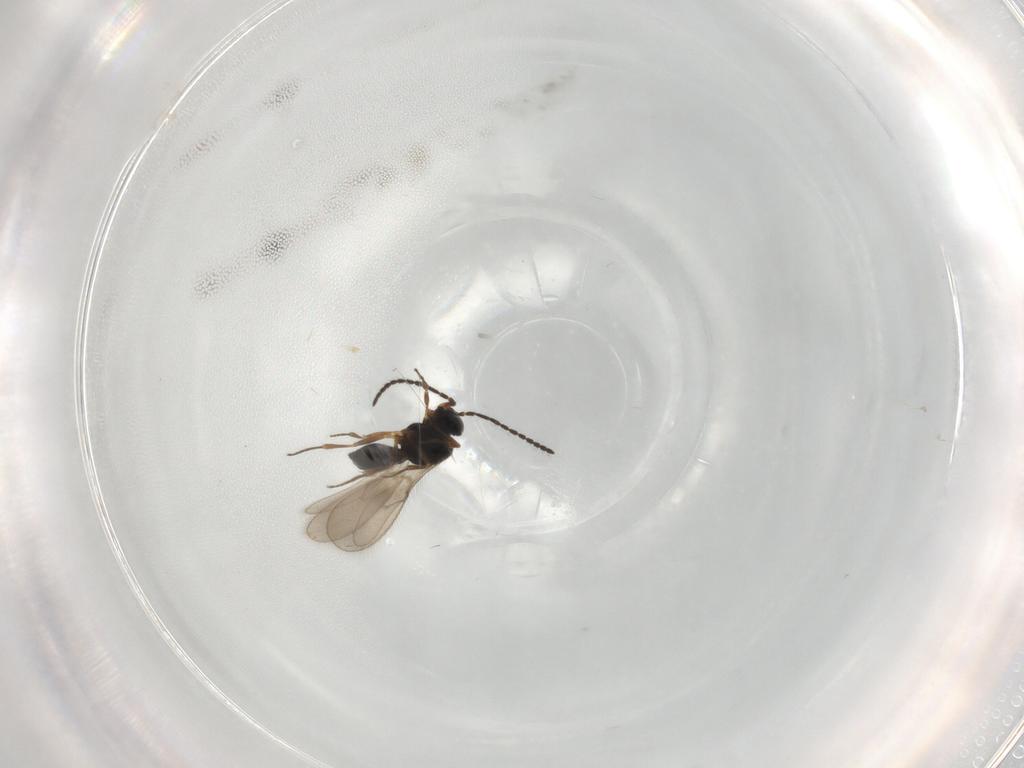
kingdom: Animalia
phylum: Arthropoda
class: Insecta
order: Hymenoptera
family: Scelionidae
